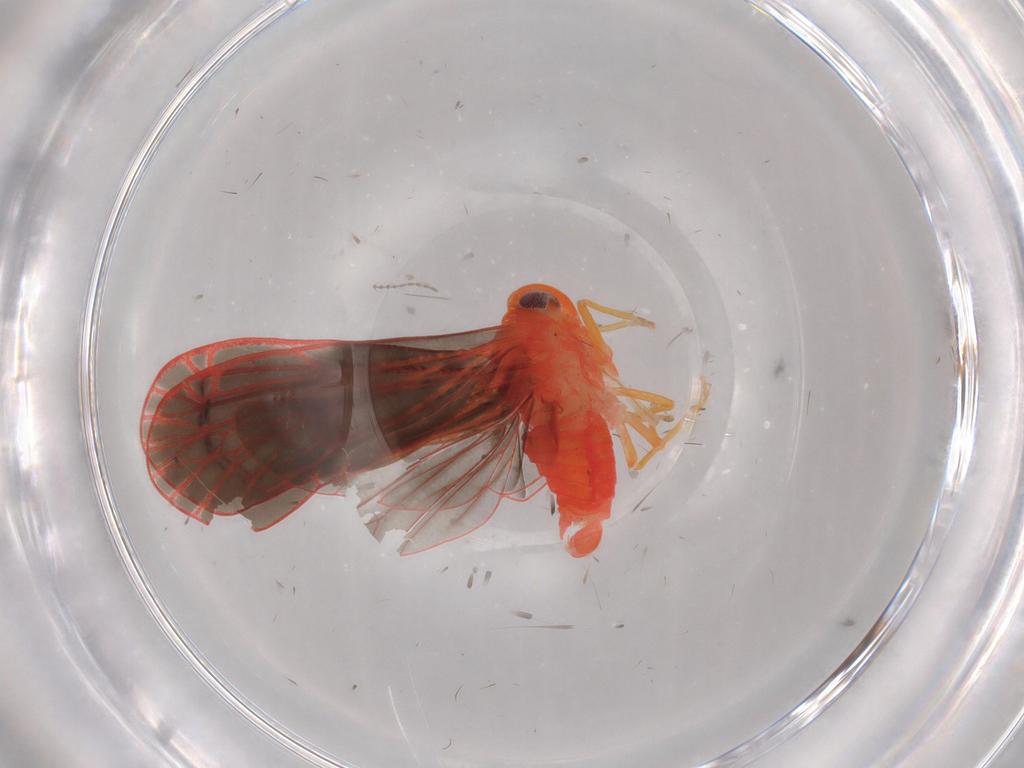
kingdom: Animalia
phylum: Arthropoda
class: Insecta
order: Hemiptera
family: Derbidae
